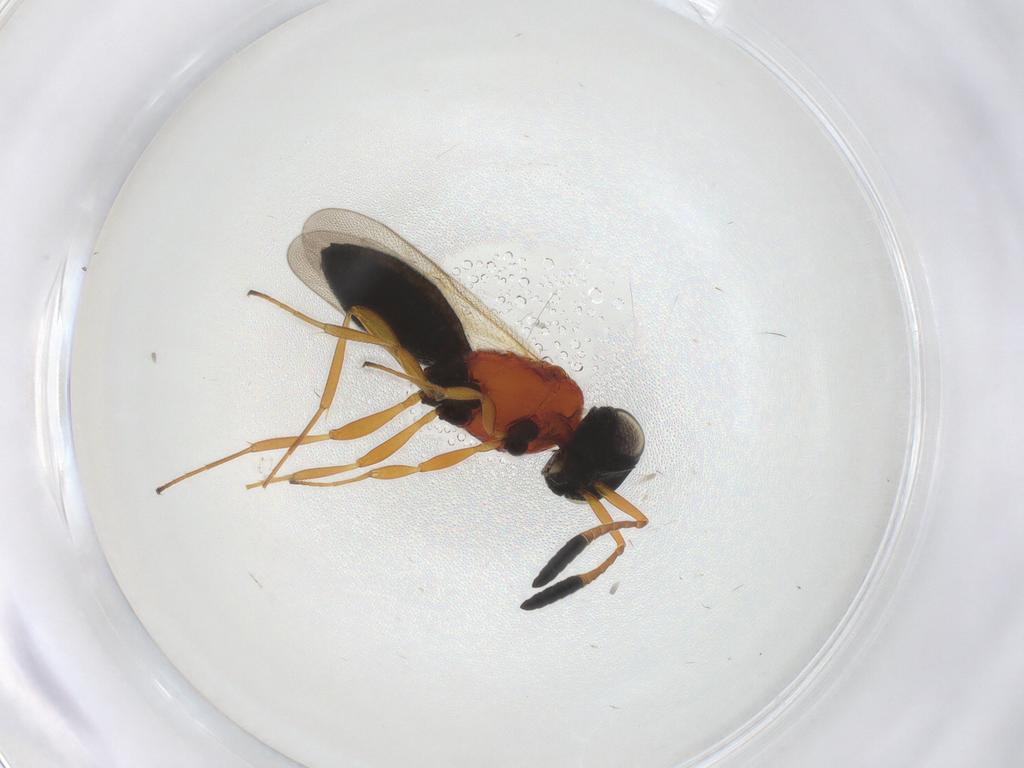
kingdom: Animalia
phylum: Arthropoda
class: Insecta
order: Hymenoptera
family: Scelionidae
